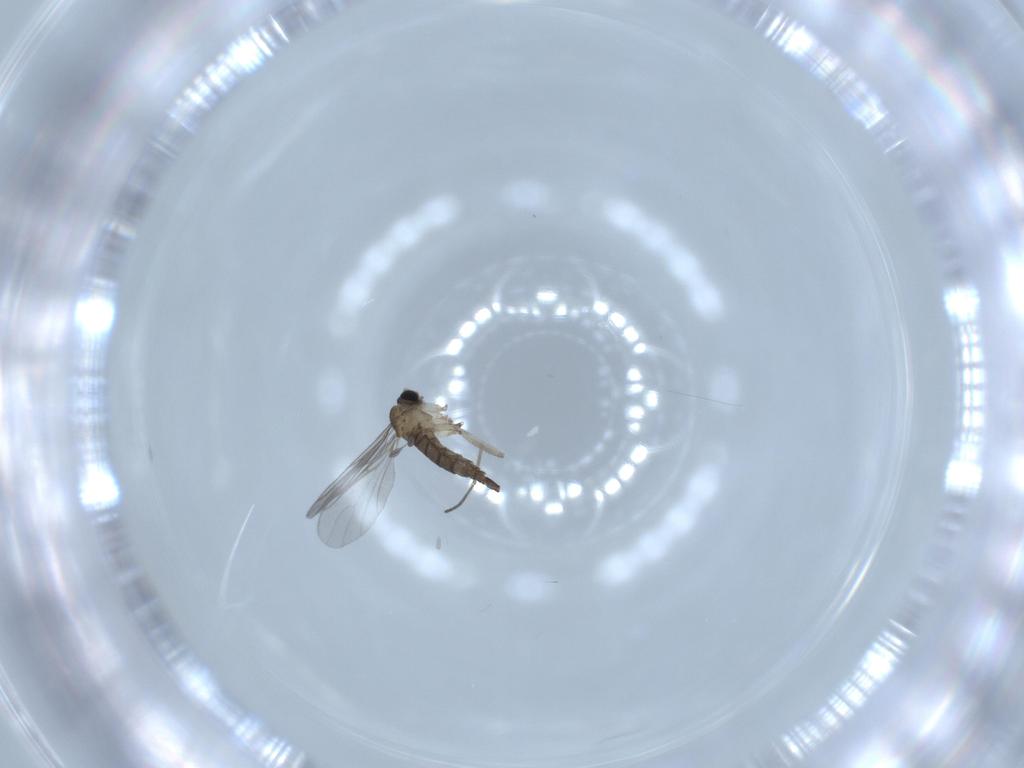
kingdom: Animalia
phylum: Arthropoda
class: Insecta
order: Diptera
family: Sciaridae
